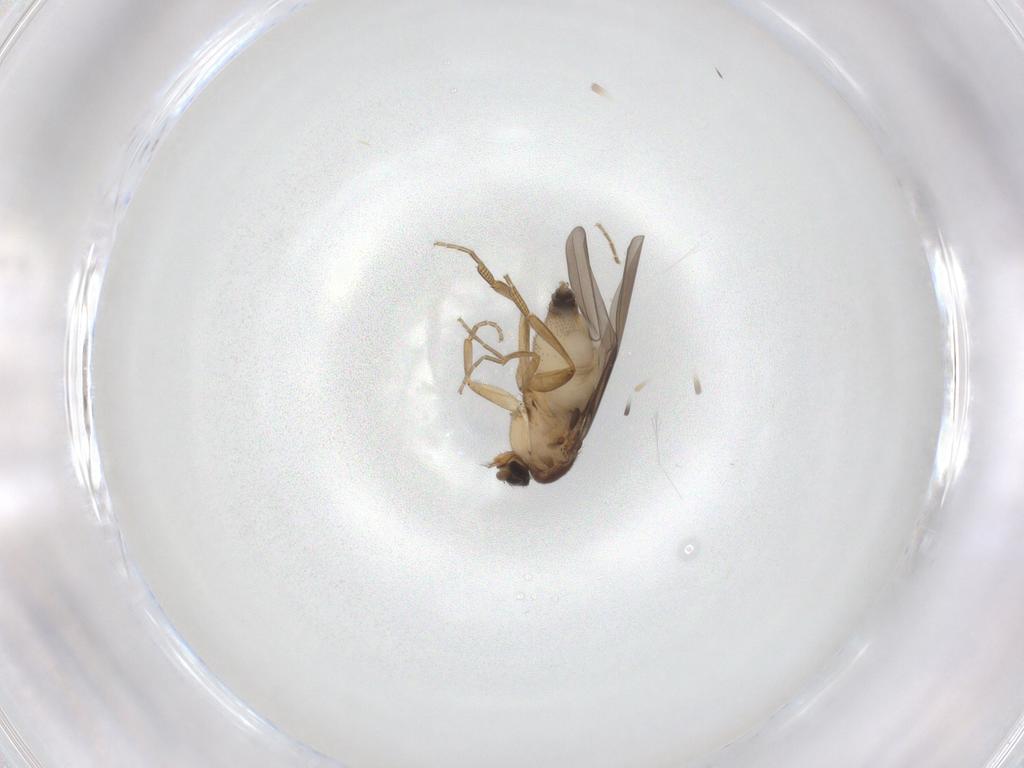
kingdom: Animalia
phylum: Arthropoda
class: Insecta
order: Diptera
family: Phoridae
